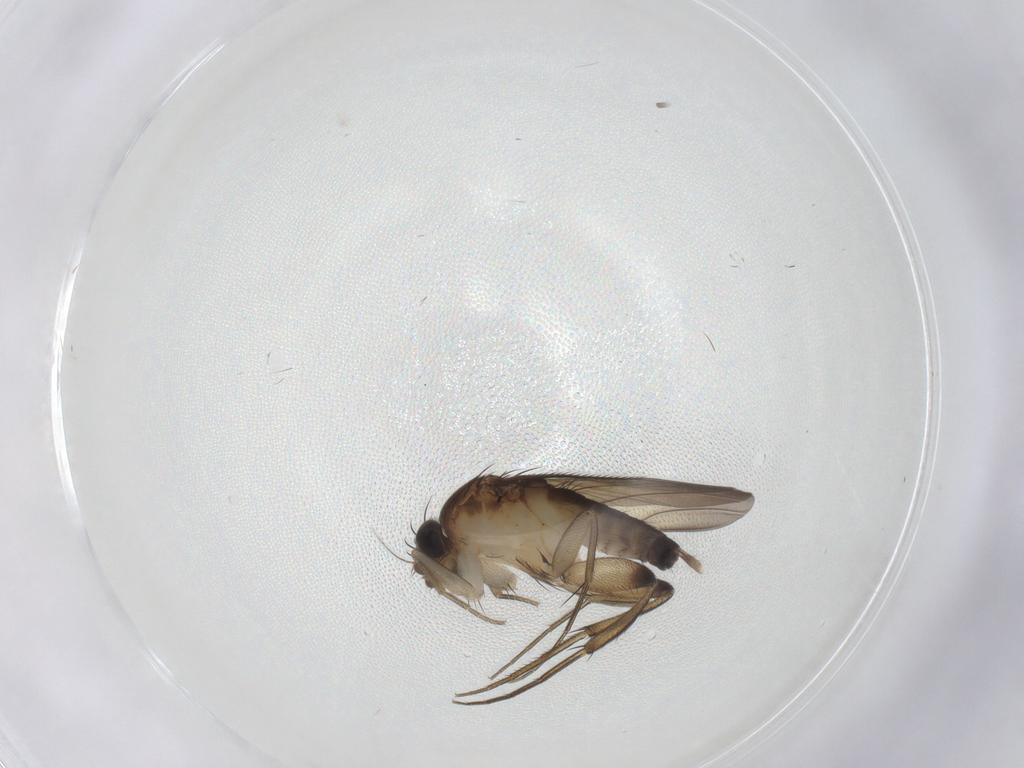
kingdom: Animalia
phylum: Arthropoda
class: Insecta
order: Diptera
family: Phoridae
